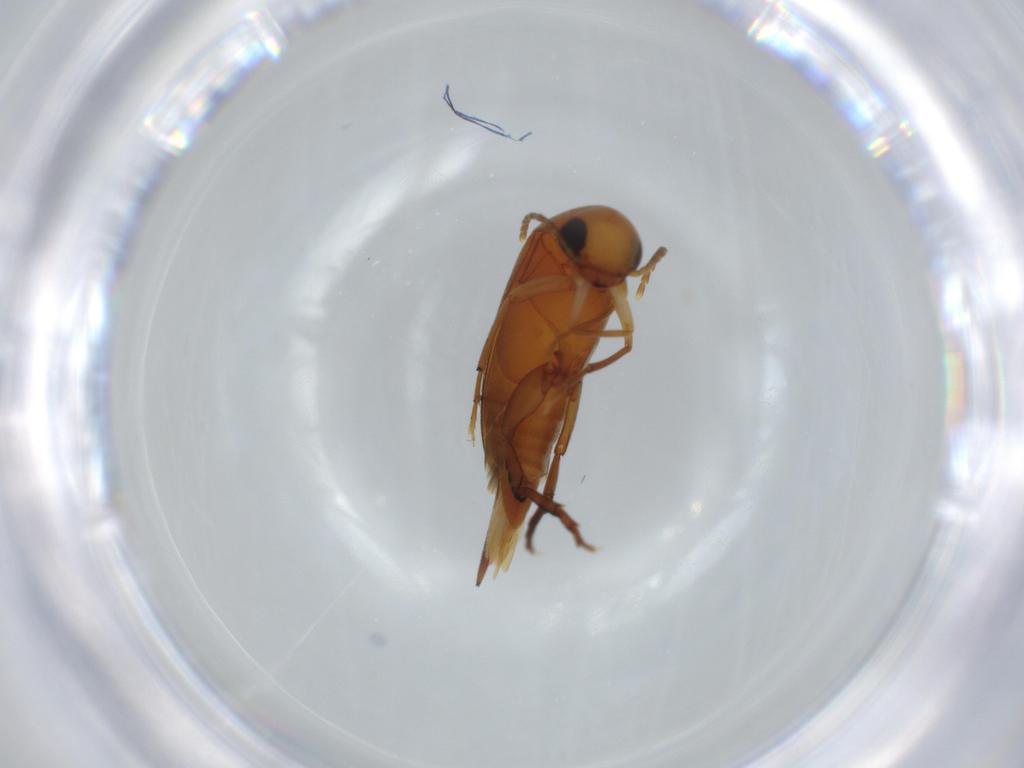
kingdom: Animalia
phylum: Arthropoda
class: Insecta
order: Coleoptera
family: Mordellidae
